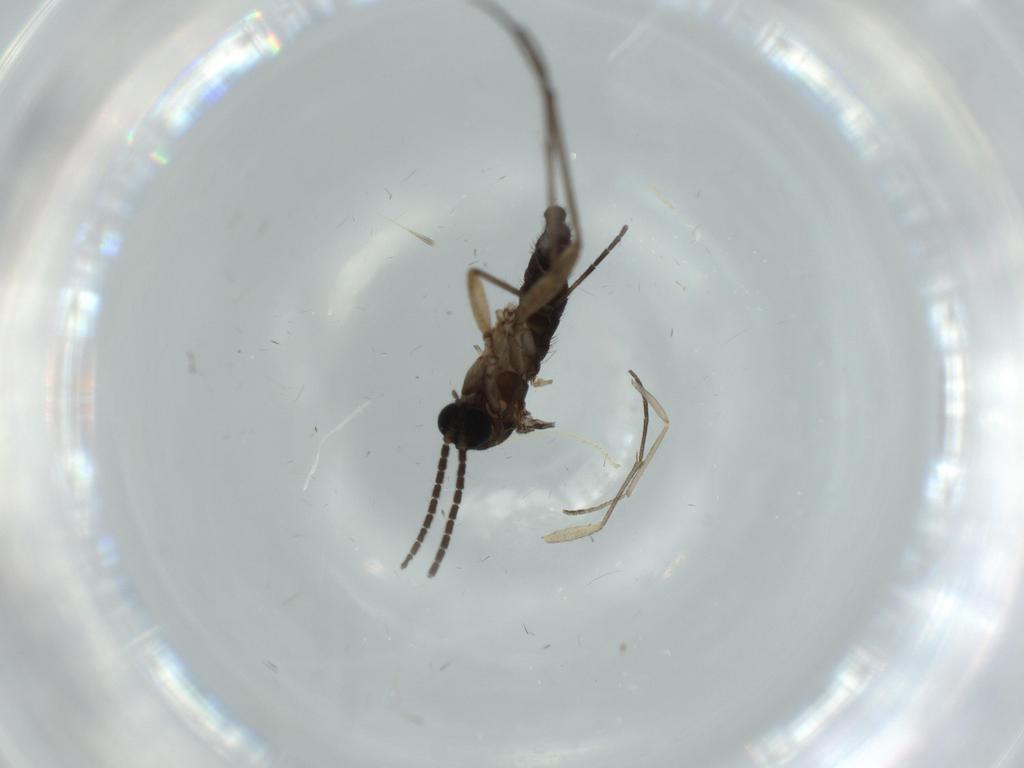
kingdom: Animalia
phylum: Arthropoda
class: Insecta
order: Diptera
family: Sciaridae
